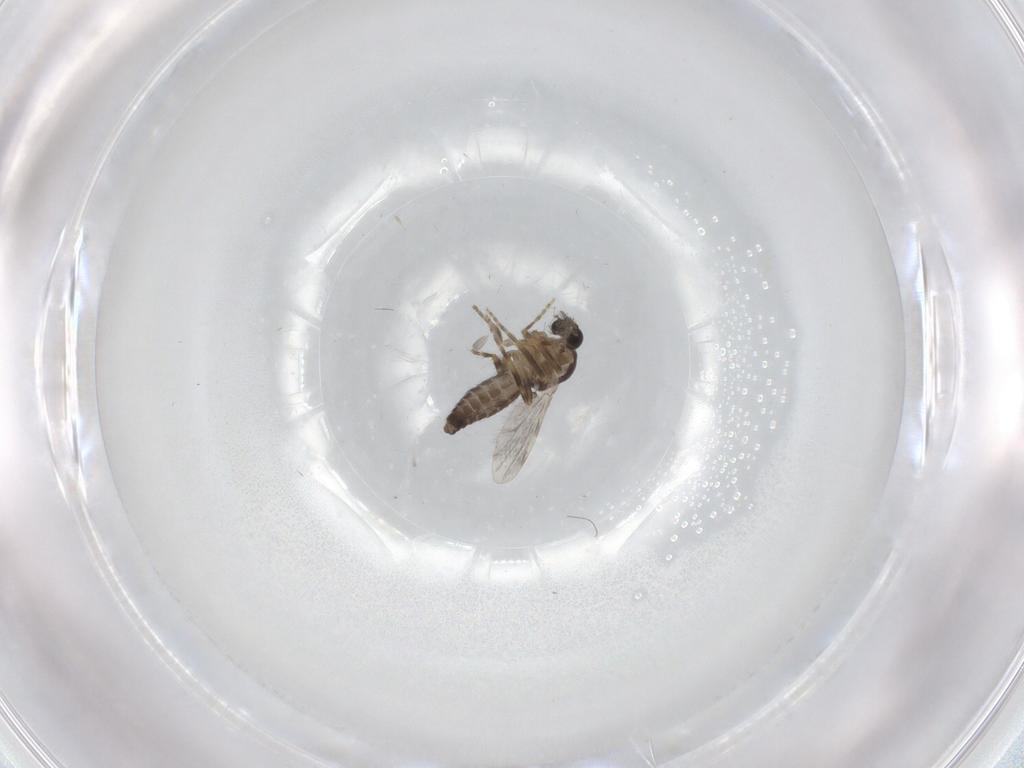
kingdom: Animalia
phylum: Arthropoda
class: Insecta
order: Diptera
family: Ceratopogonidae
